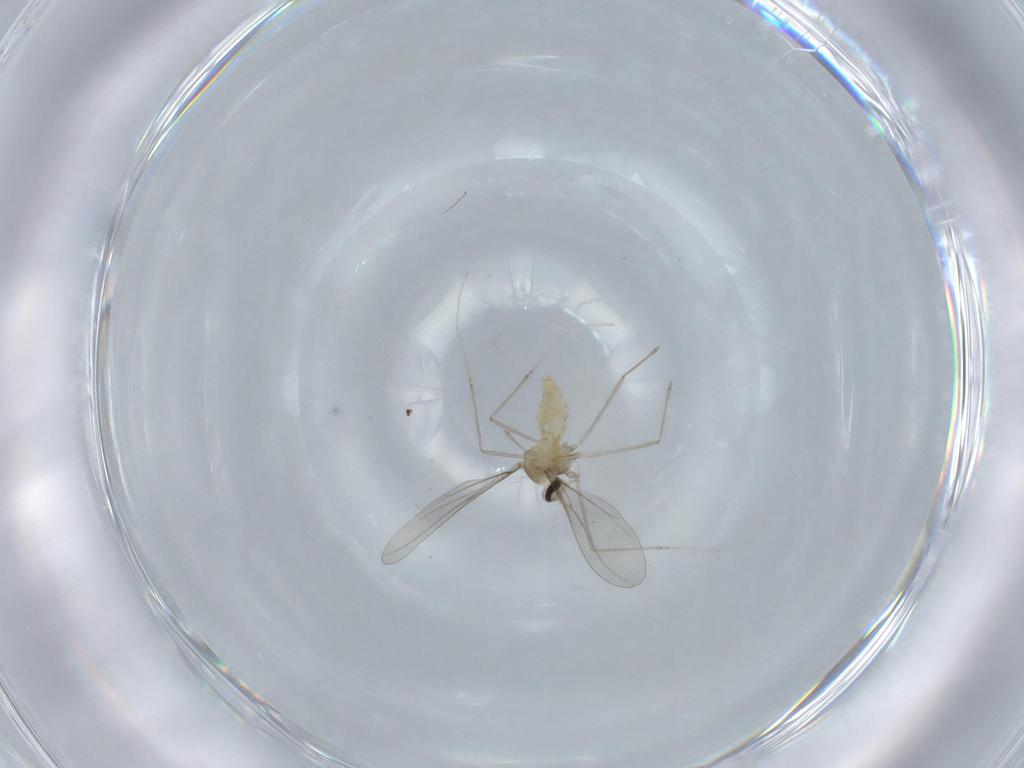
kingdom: Animalia
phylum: Arthropoda
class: Insecta
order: Diptera
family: Cecidomyiidae
